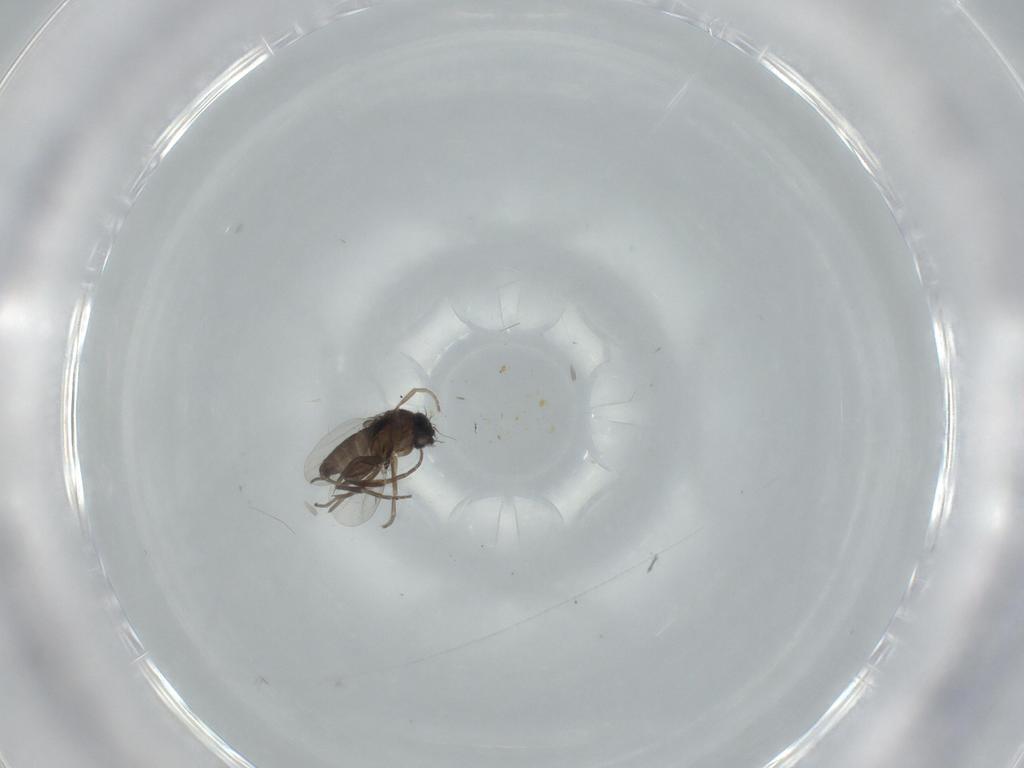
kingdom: Animalia
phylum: Arthropoda
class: Insecta
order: Diptera
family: Phoridae
